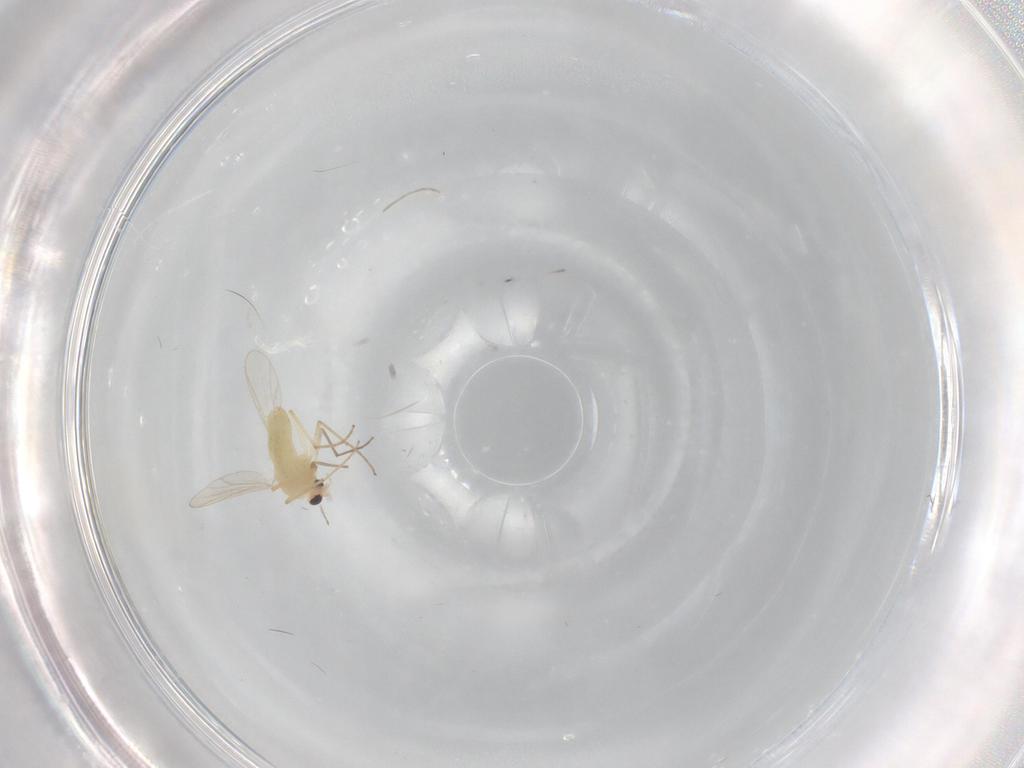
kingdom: Animalia
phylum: Arthropoda
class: Insecta
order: Diptera
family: Chironomidae
